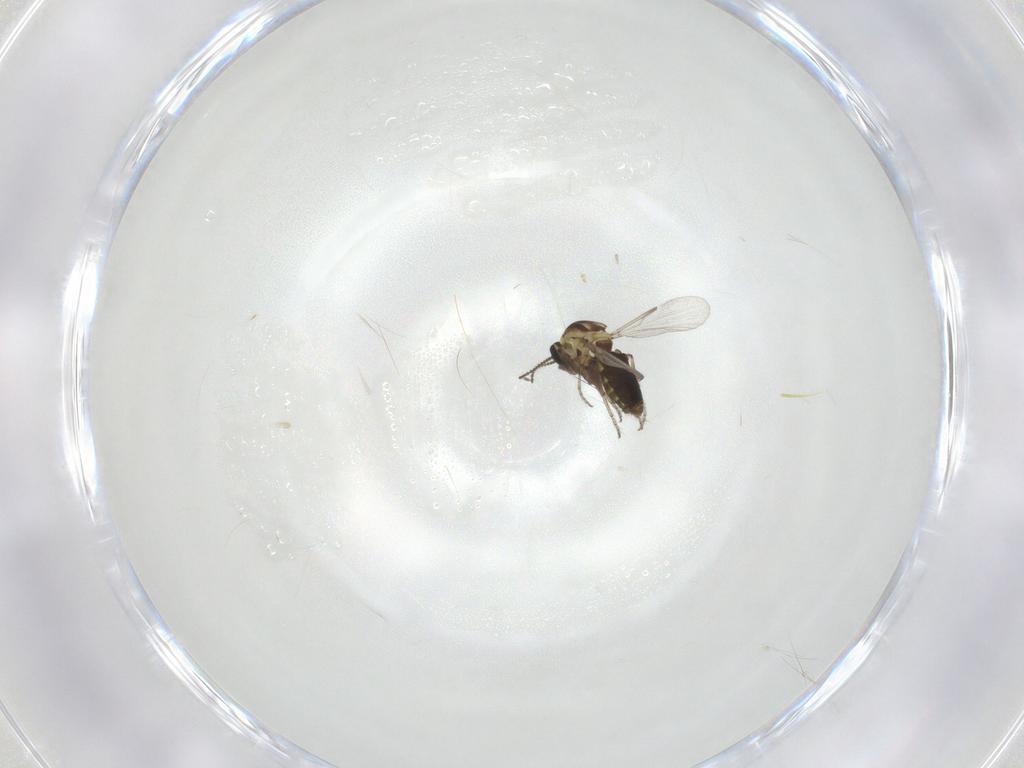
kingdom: Animalia
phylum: Arthropoda
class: Insecta
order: Diptera
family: Ceratopogonidae
